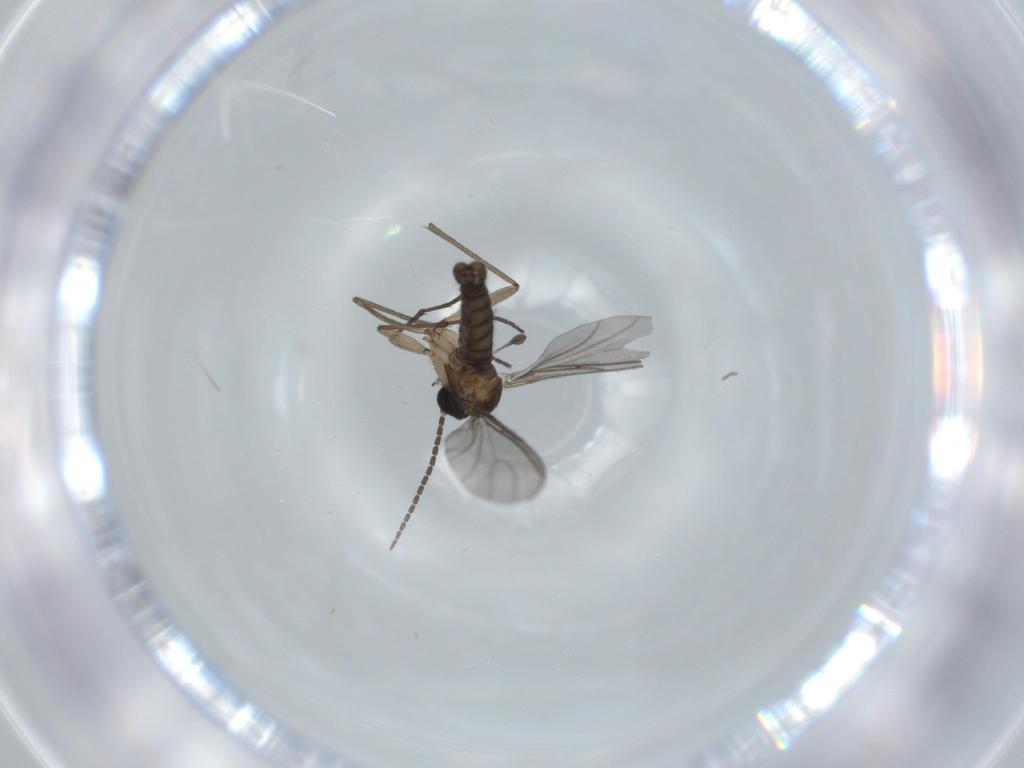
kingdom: Animalia
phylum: Arthropoda
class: Insecta
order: Diptera
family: Sciaridae
